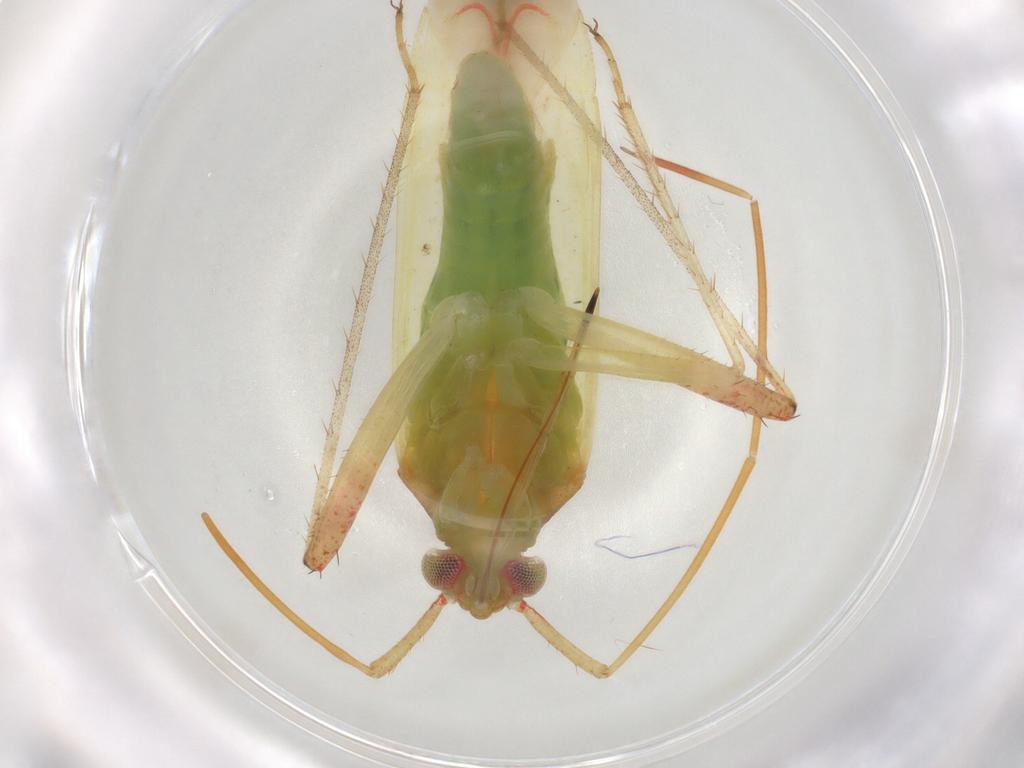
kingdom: Animalia
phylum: Arthropoda
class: Insecta
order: Hemiptera
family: Miridae
